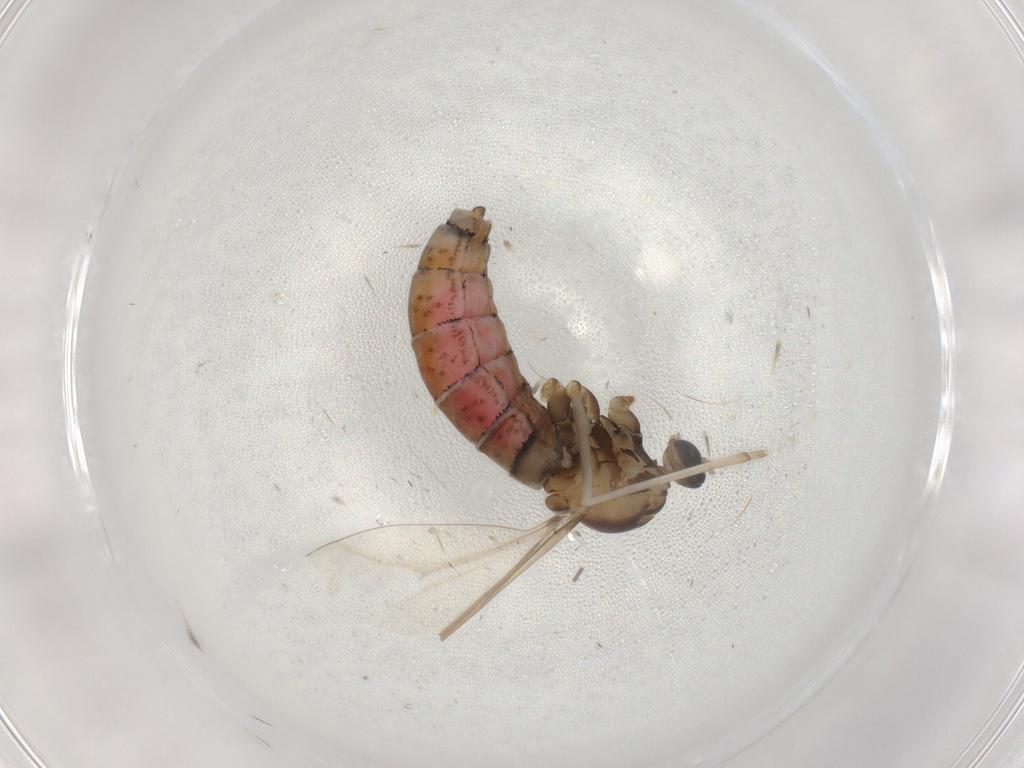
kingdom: Animalia
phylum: Arthropoda
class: Insecta
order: Diptera
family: Cecidomyiidae
